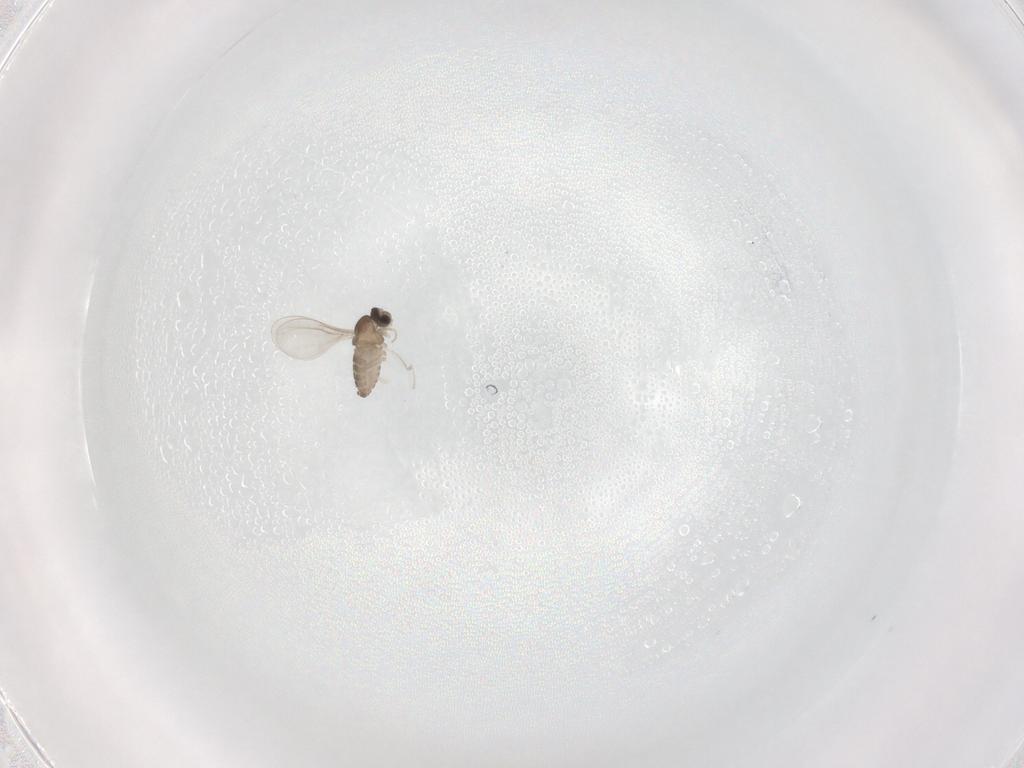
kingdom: Animalia
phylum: Arthropoda
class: Insecta
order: Diptera
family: Cecidomyiidae
